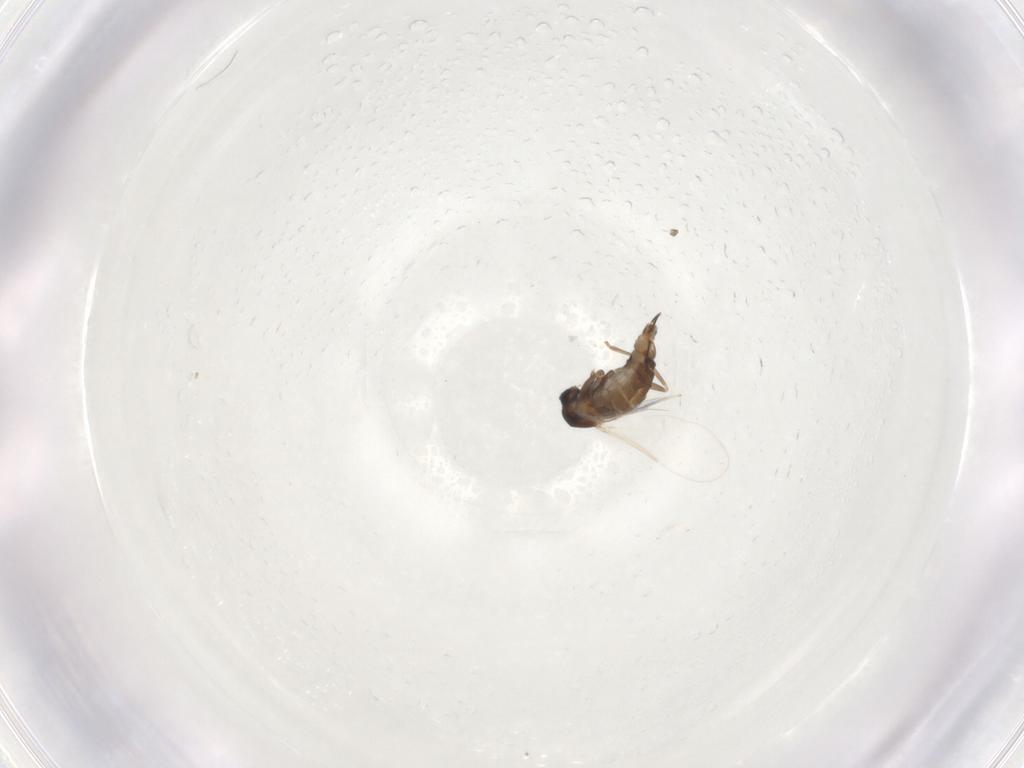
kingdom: Animalia
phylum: Arthropoda
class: Insecta
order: Diptera
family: Cecidomyiidae
